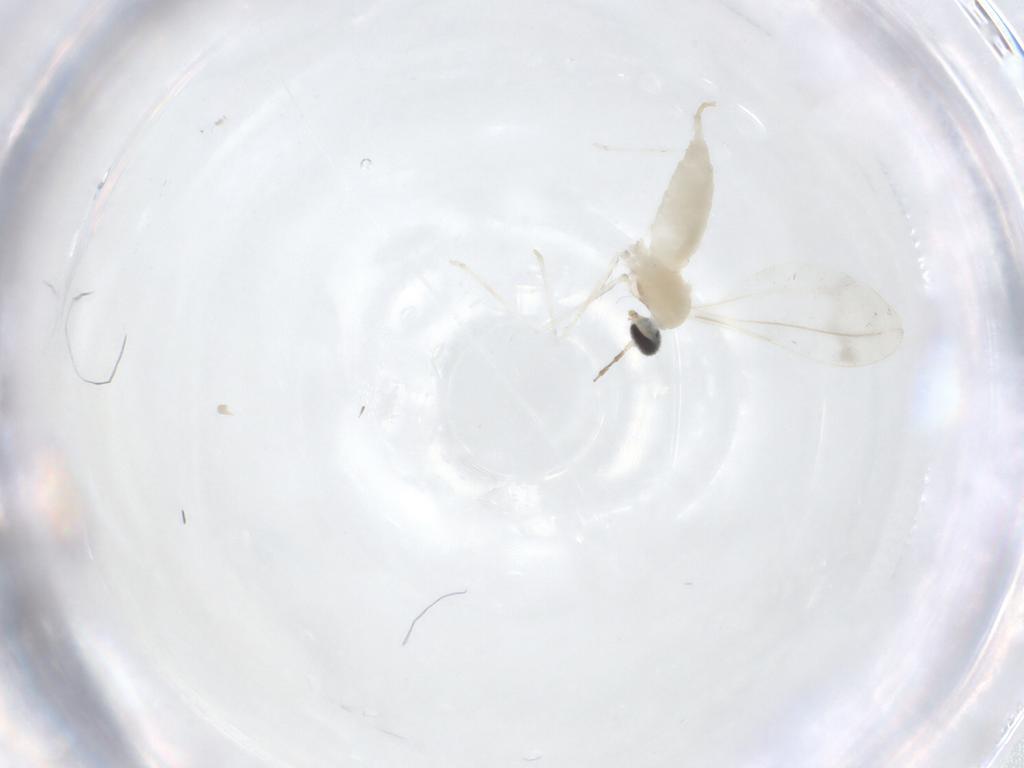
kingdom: Animalia
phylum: Arthropoda
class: Insecta
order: Diptera
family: Cecidomyiidae
